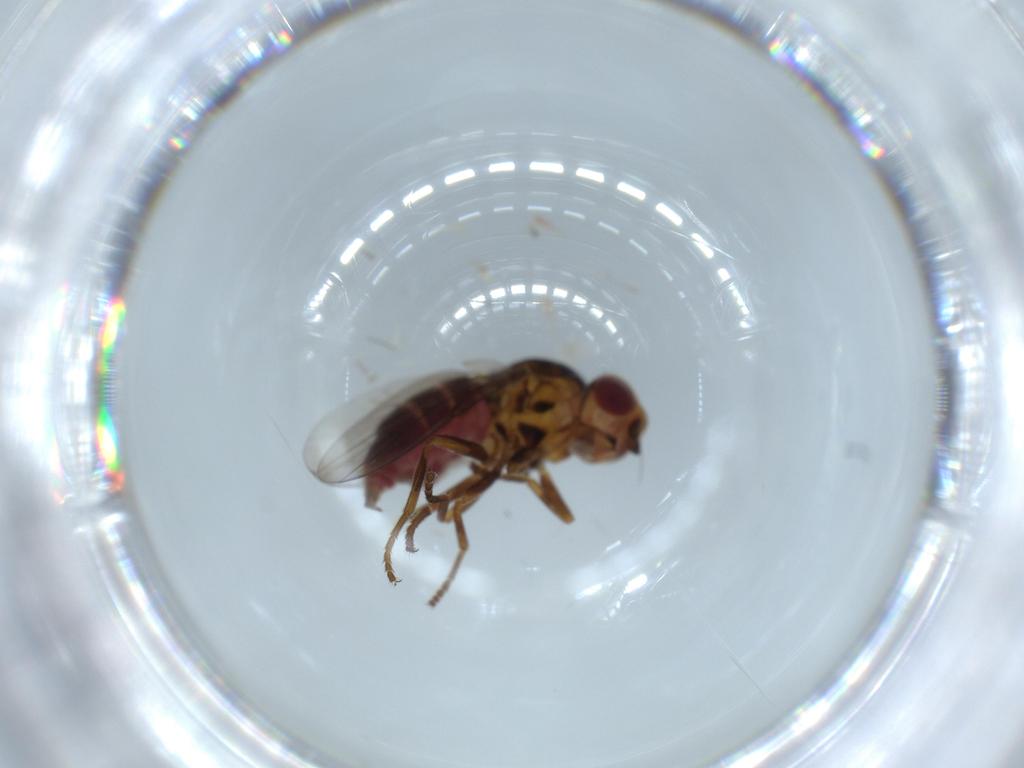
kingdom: Animalia
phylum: Arthropoda
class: Insecta
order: Diptera
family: Chloropidae
